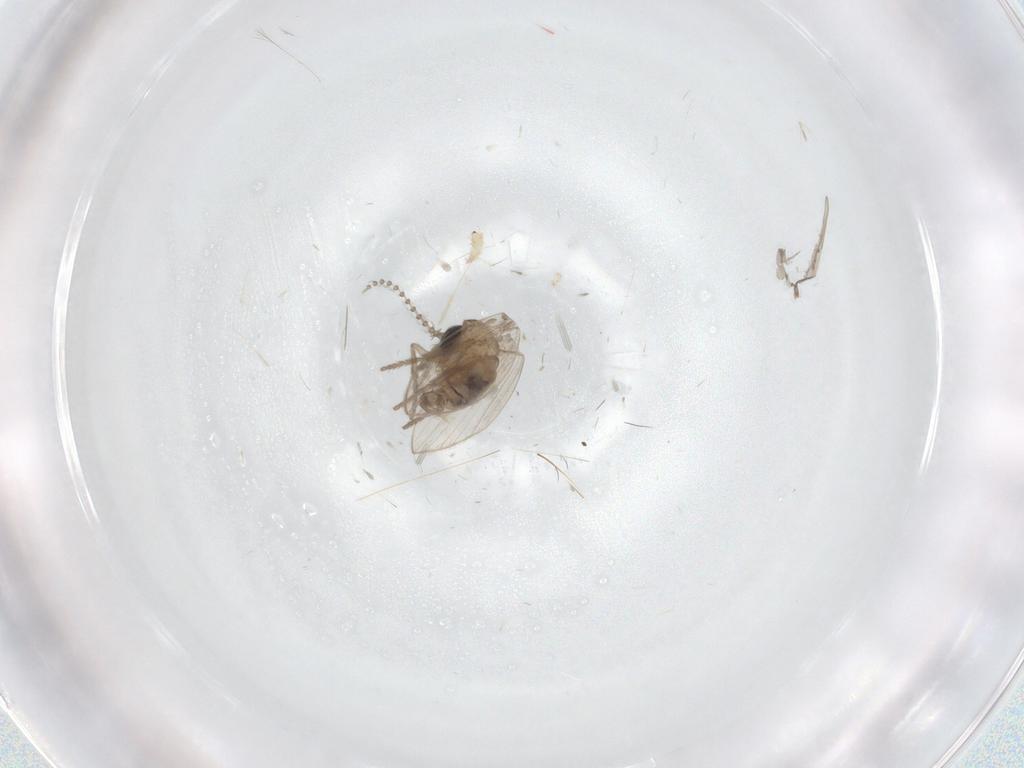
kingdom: Animalia
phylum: Arthropoda
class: Insecta
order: Diptera
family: Psychodidae
